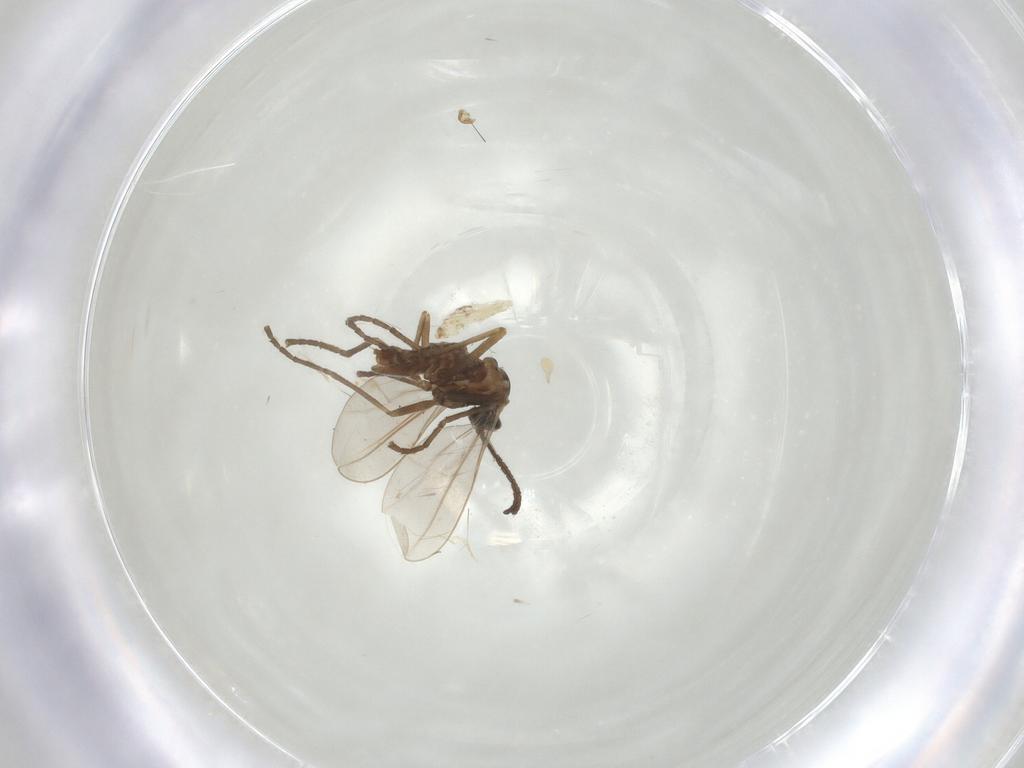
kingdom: Animalia
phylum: Arthropoda
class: Insecta
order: Diptera
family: Cecidomyiidae
